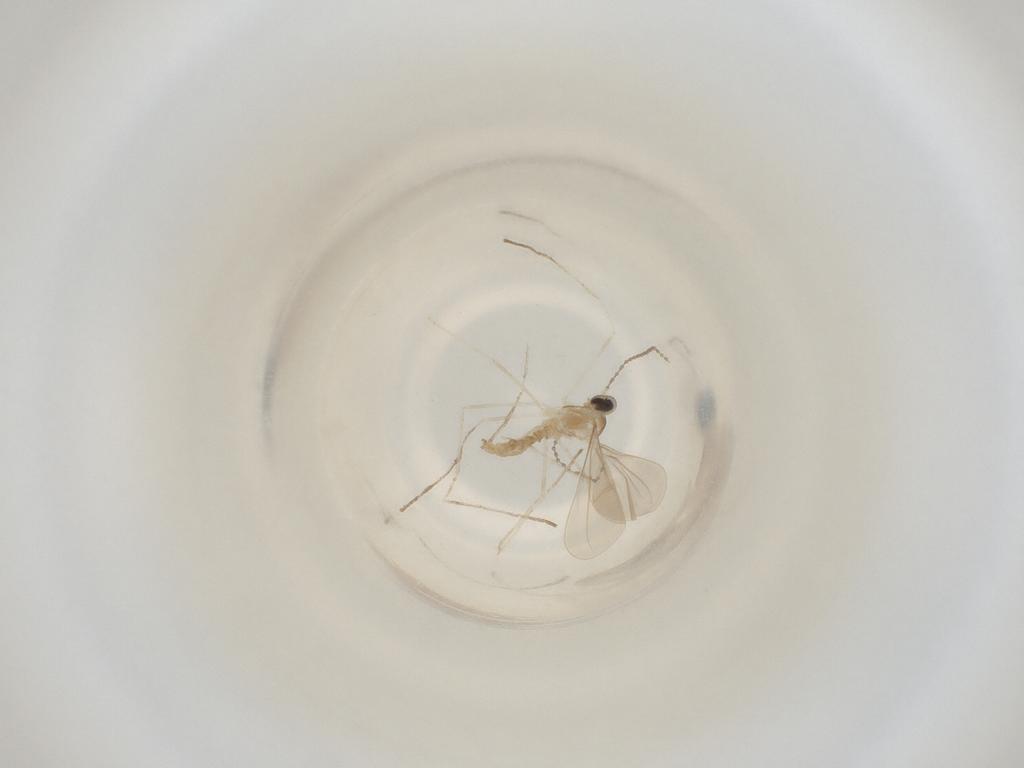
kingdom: Animalia
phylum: Arthropoda
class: Insecta
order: Diptera
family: Cecidomyiidae
